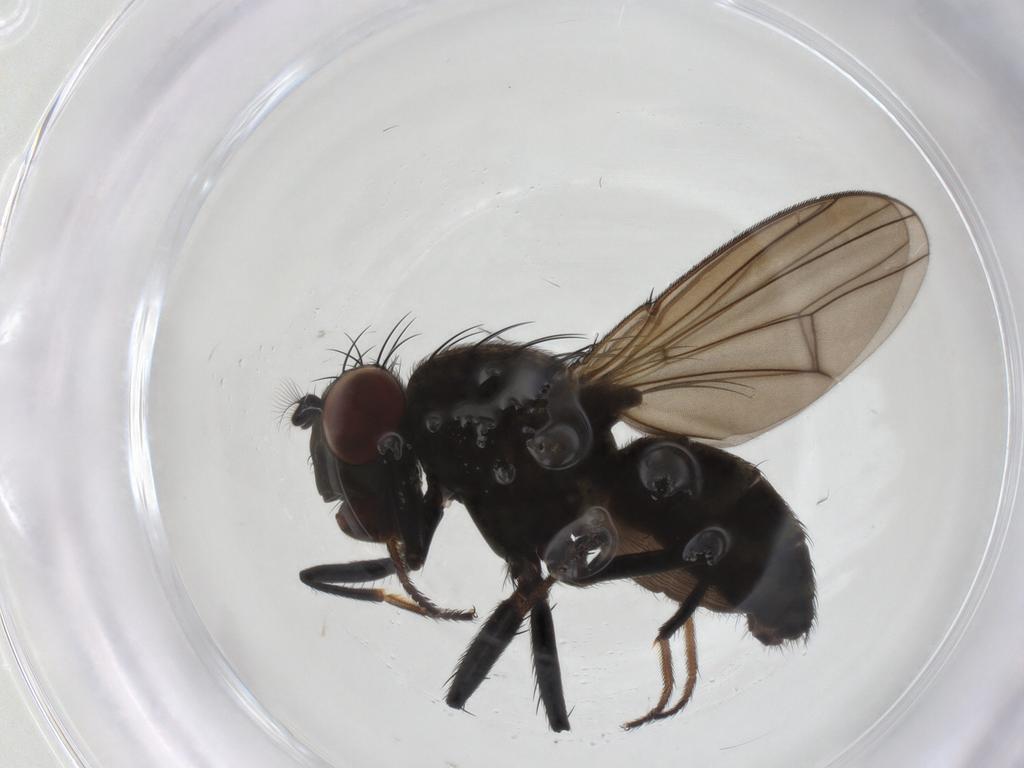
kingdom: Animalia
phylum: Arthropoda
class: Insecta
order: Diptera
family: Ephydridae
